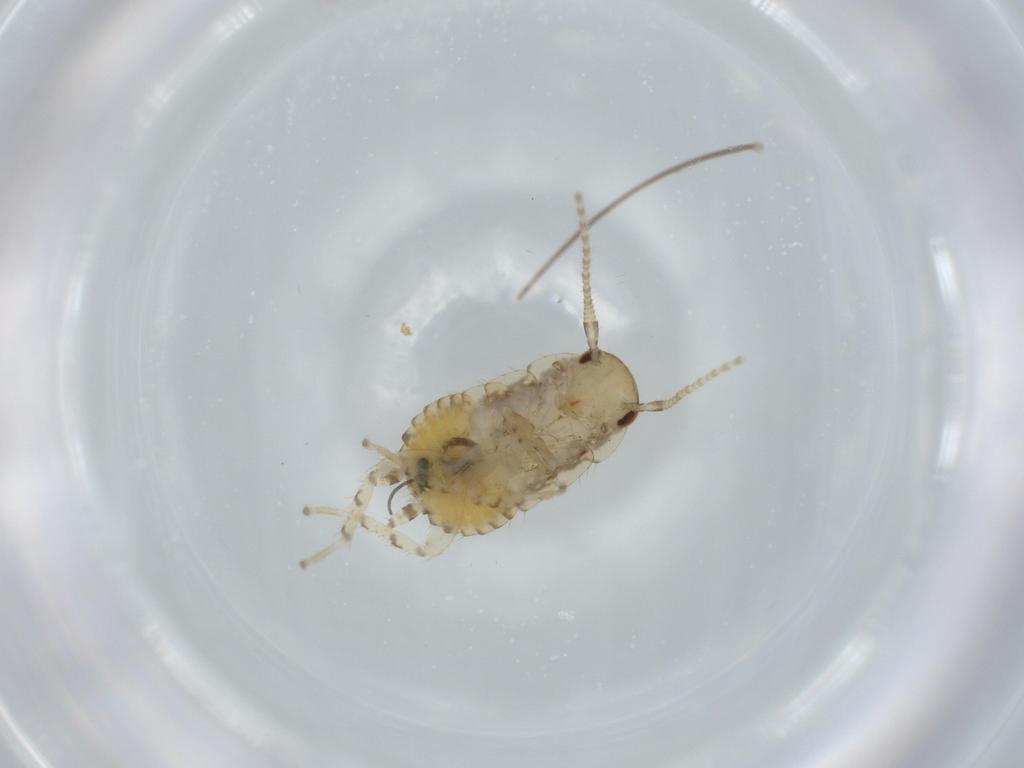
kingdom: Animalia
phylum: Arthropoda
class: Insecta
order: Blattodea
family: Ectobiidae
